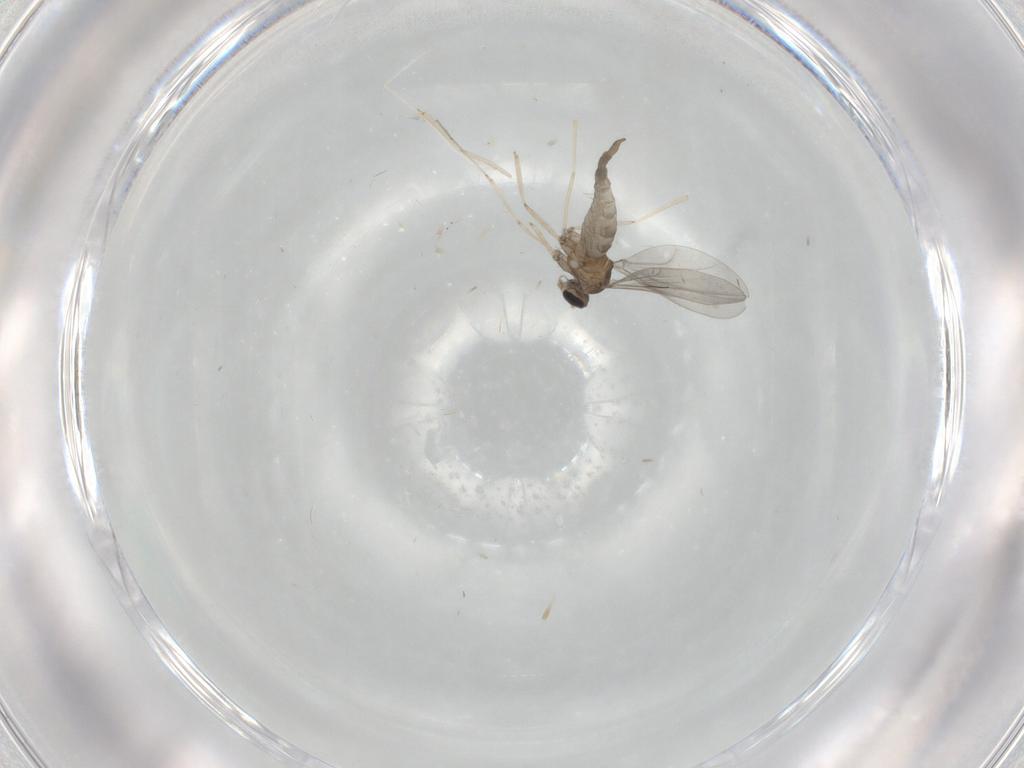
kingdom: Animalia
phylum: Arthropoda
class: Insecta
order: Diptera
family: Cecidomyiidae
